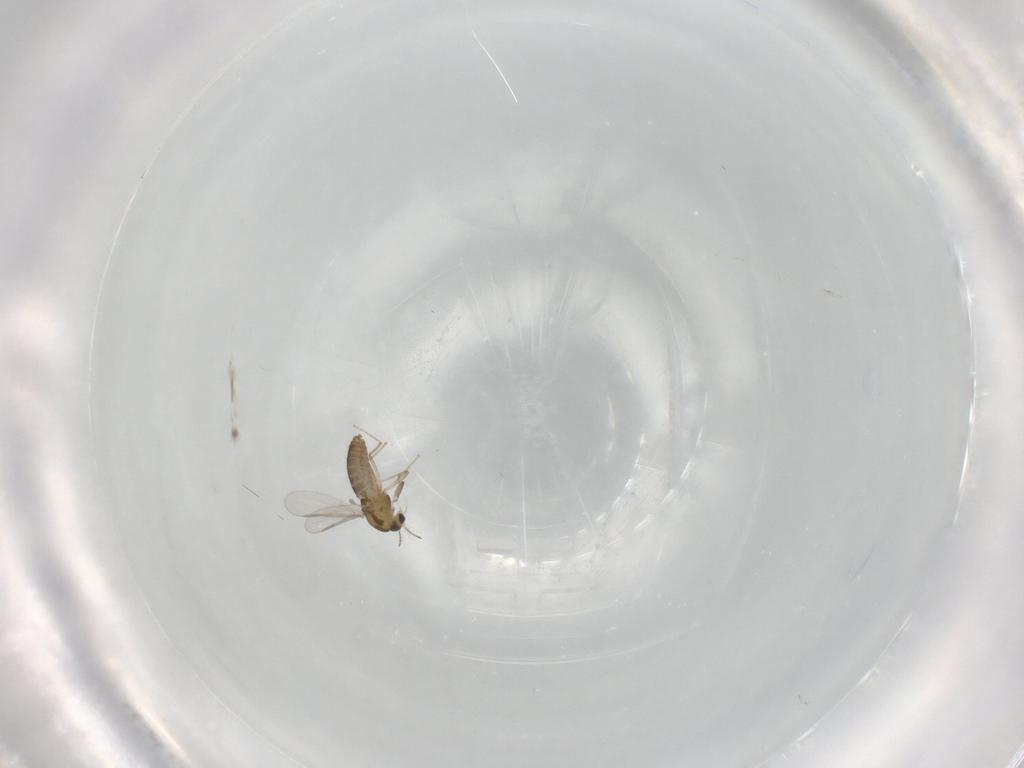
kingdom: Animalia
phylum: Arthropoda
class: Insecta
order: Diptera
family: Chironomidae
